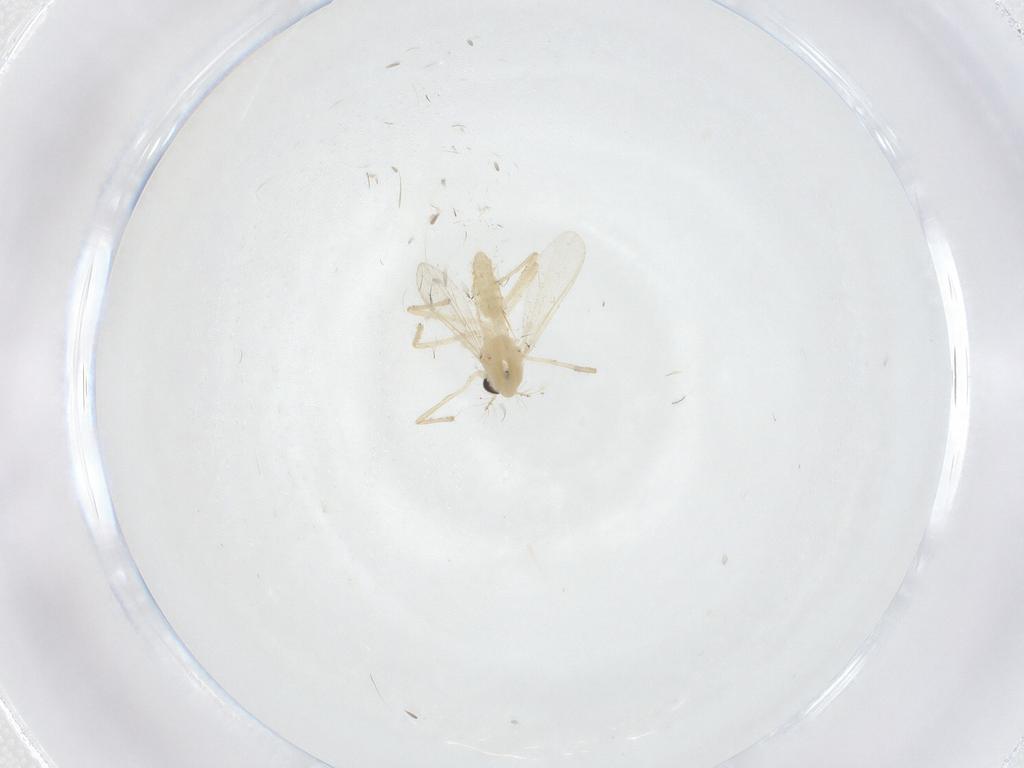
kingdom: Animalia
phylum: Arthropoda
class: Insecta
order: Diptera
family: Chironomidae
